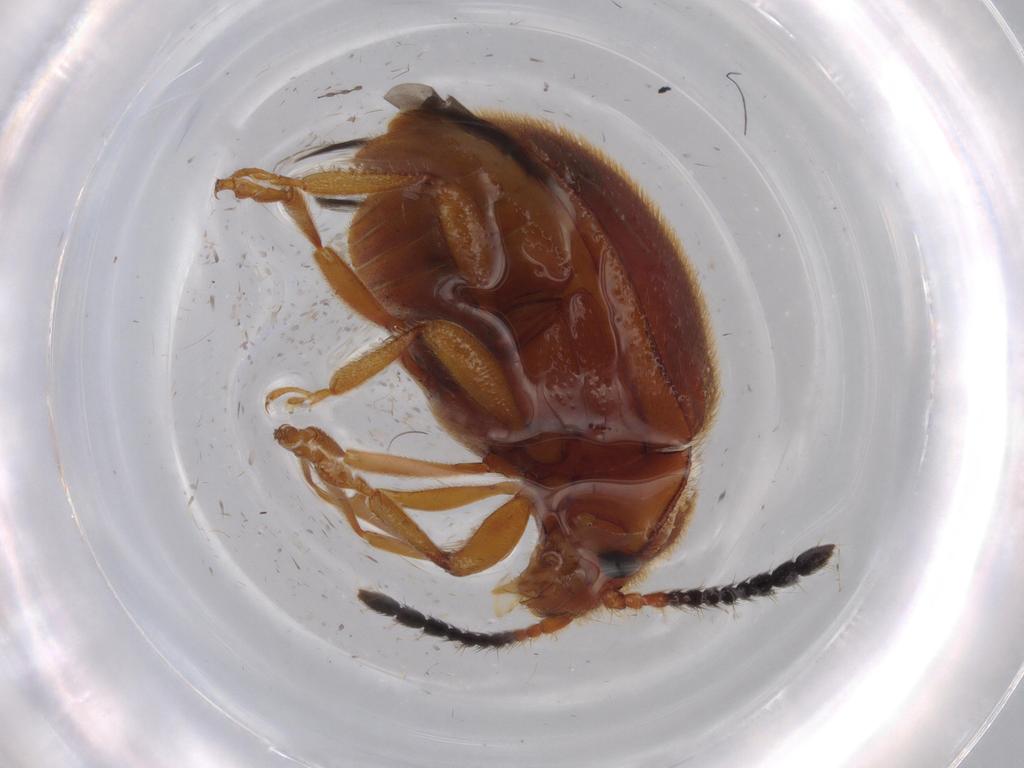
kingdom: Animalia
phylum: Arthropoda
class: Insecta
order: Coleoptera
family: Endomychidae
